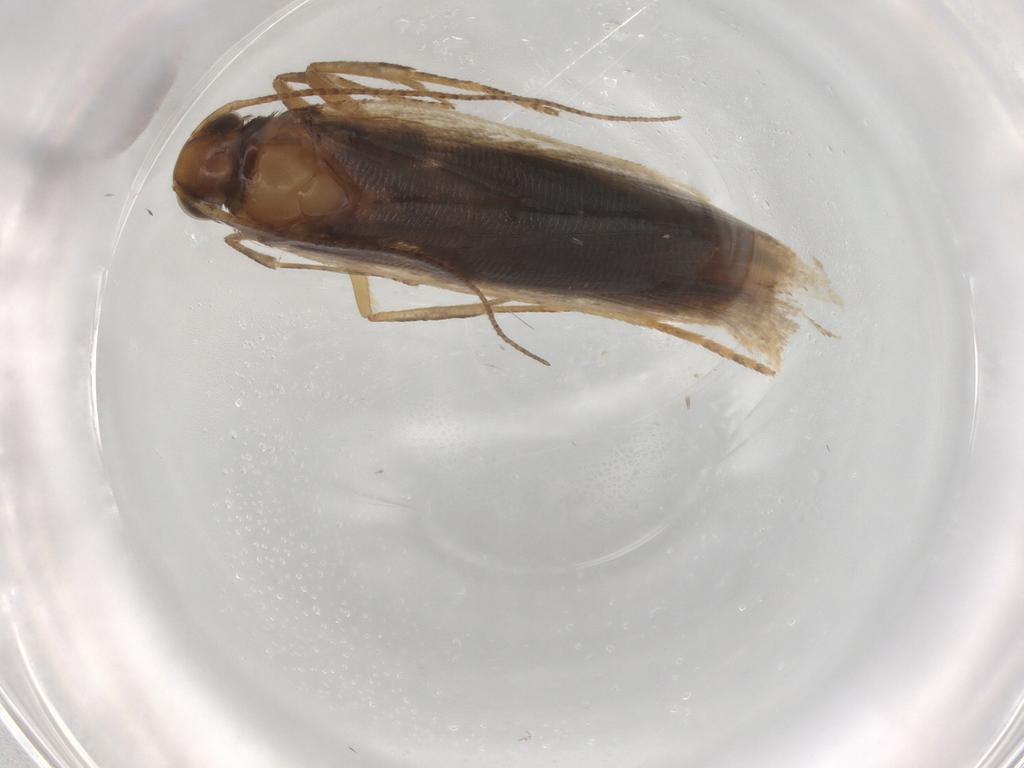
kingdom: Animalia
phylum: Arthropoda
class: Insecta
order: Lepidoptera
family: Gelechiidae
